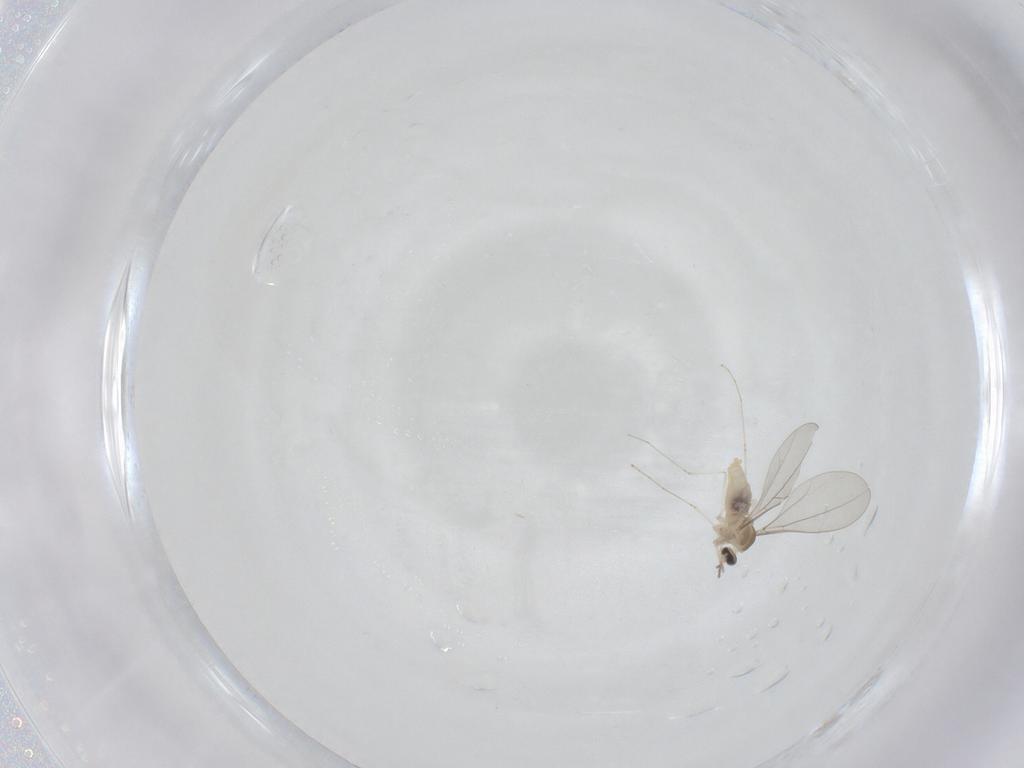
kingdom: Animalia
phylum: Arthropoda
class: Insecta
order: Diptera
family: Cecidomyiidae
